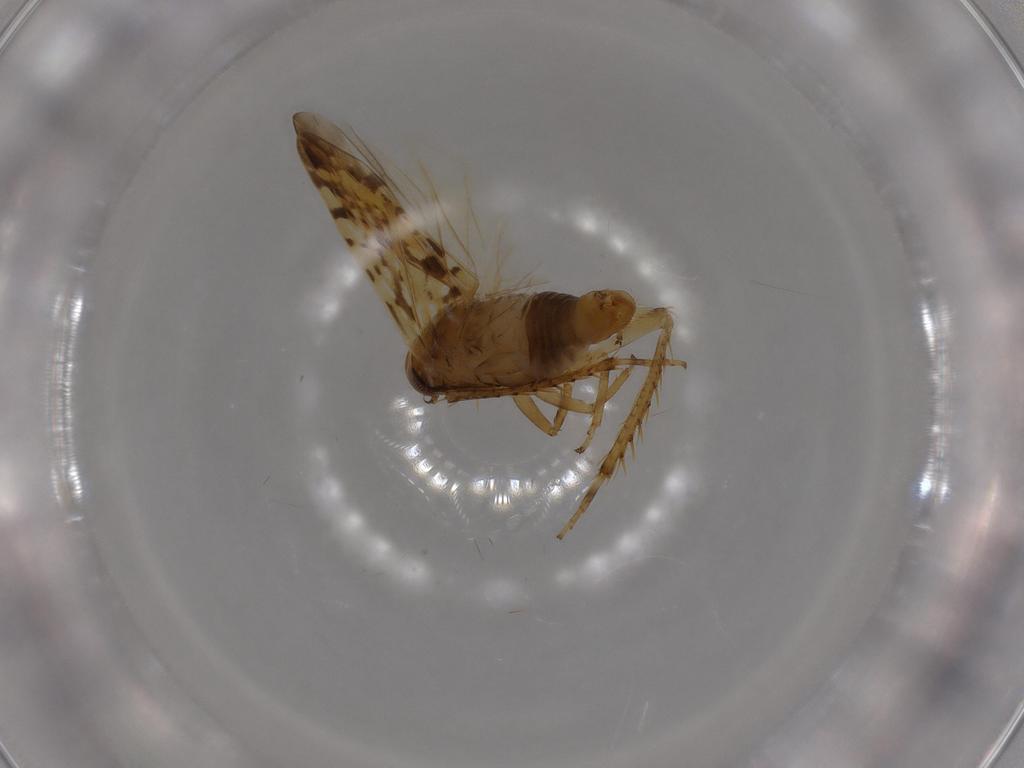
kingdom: Animalia
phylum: Arthropoda
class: Insecta
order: Hemiptera
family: Cicadellidae
